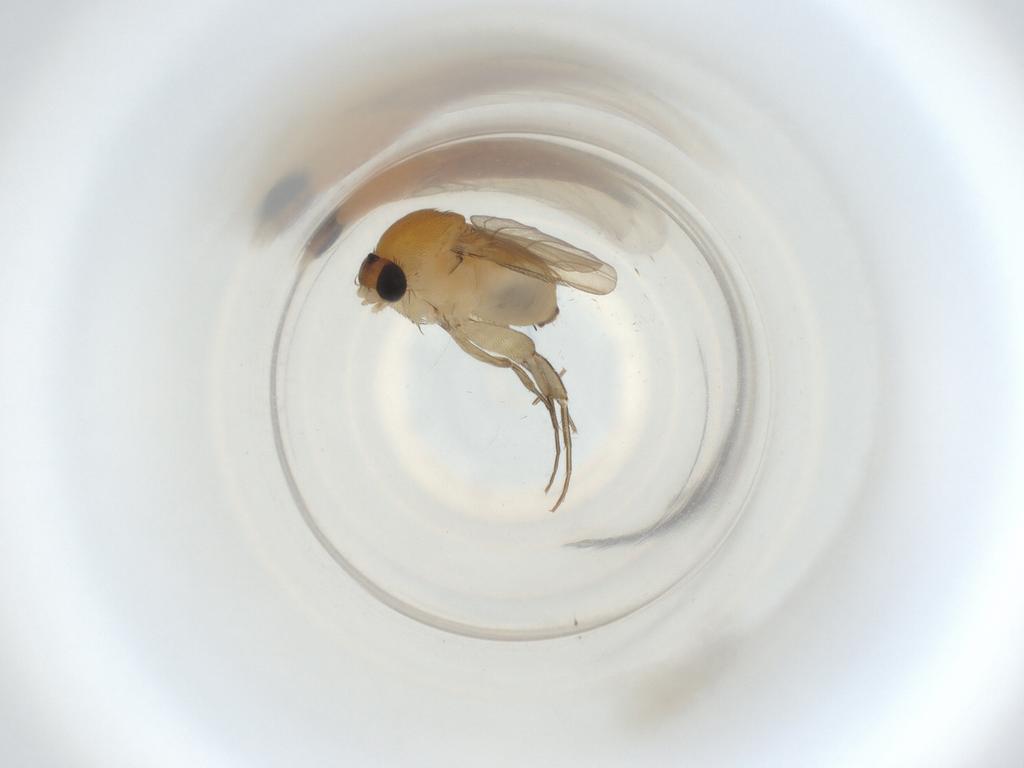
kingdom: Animalia
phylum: Arthropoda
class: Insecta
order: Diptera
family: Phoridae
